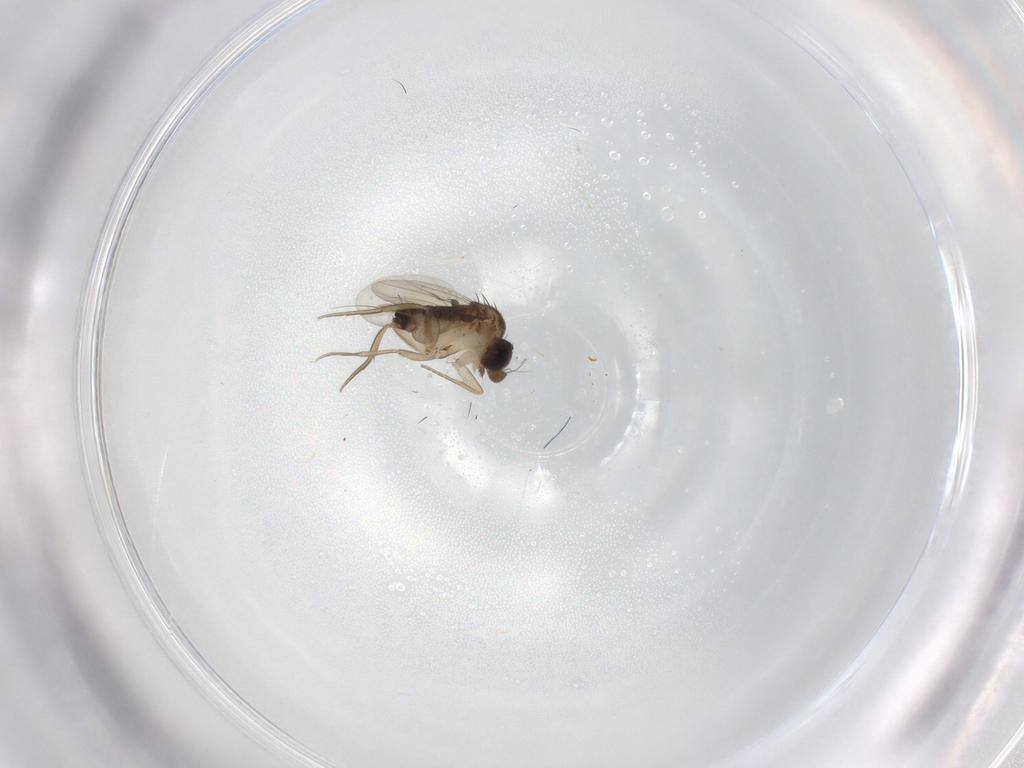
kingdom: Animalia
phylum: Arthropoda
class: Insecta
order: Diptera
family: Phoridae
